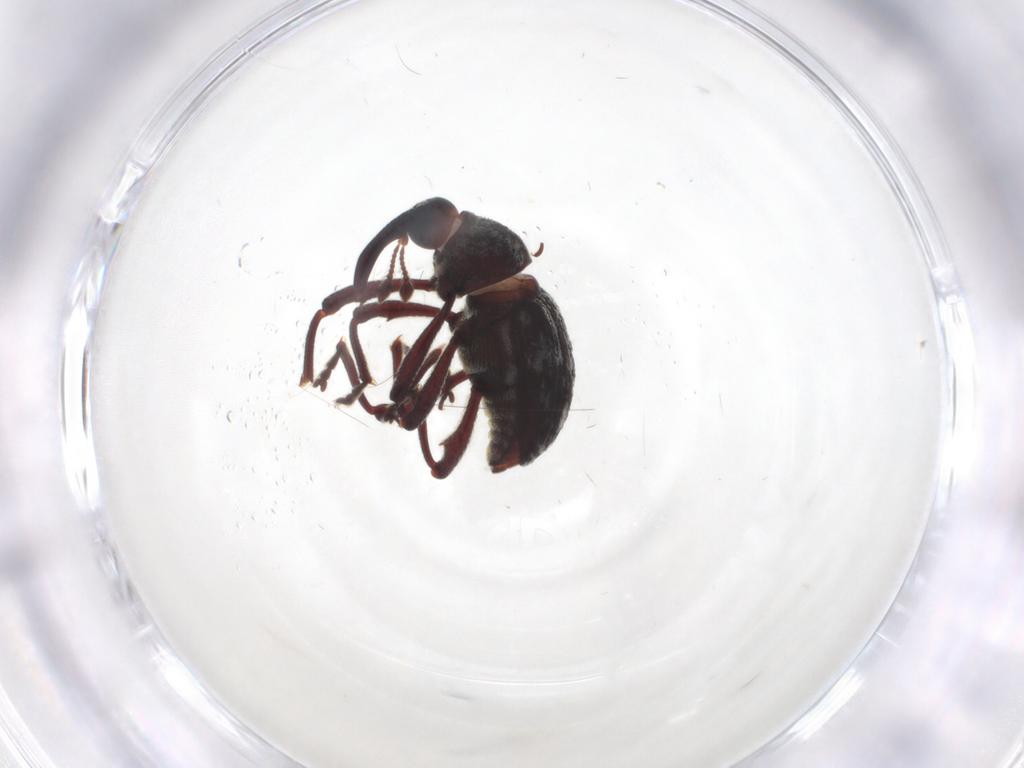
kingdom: Animalia
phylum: Arthropoda
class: Insecta
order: Coleoptera
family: Curculionidae
